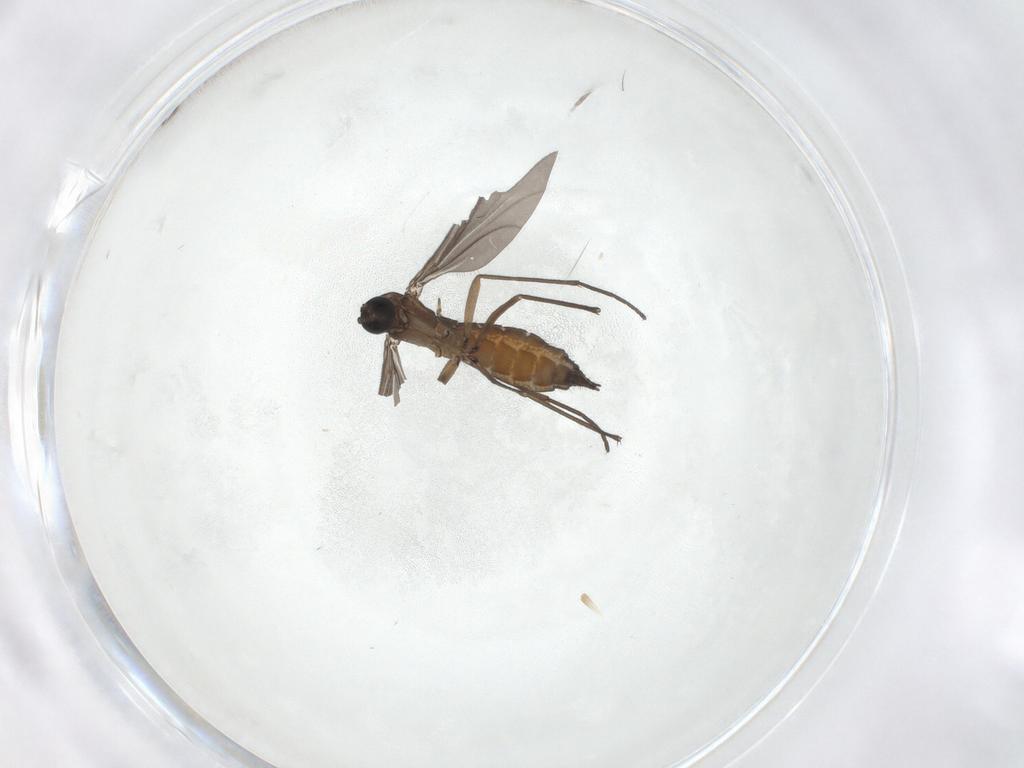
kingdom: Animalia
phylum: Arthropoda
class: Insecta
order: Diptera
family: Sciaridae
